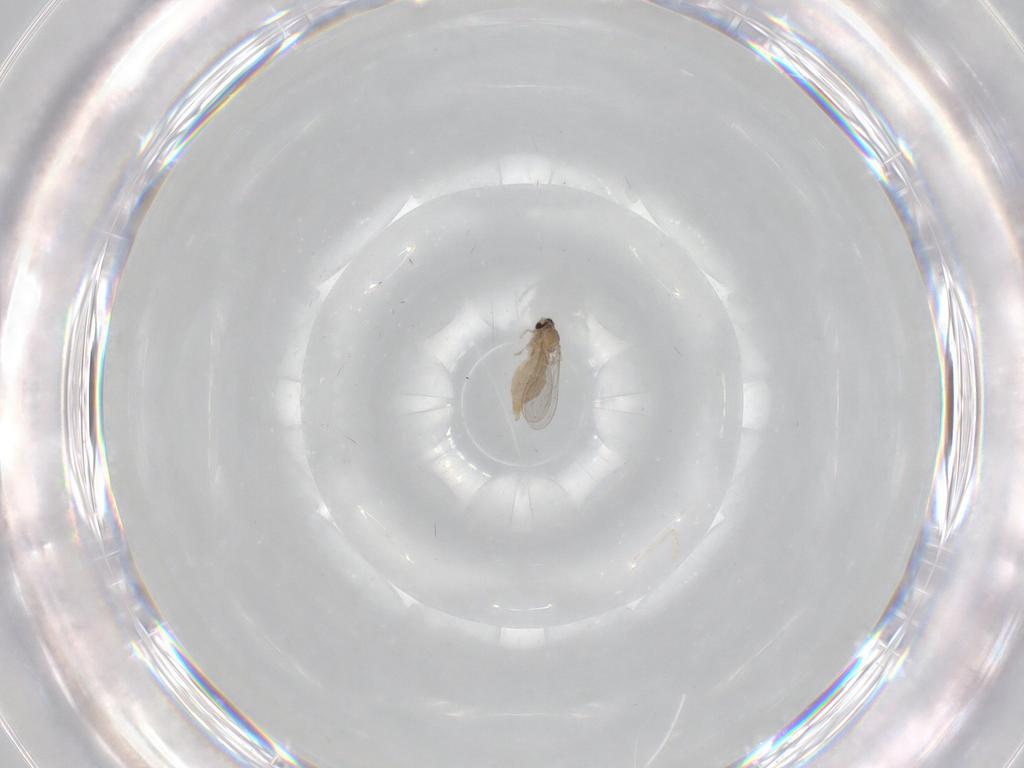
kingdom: Animalia
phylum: Arthropoda
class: Insecta
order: Diptera
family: Cecidomyiidae
